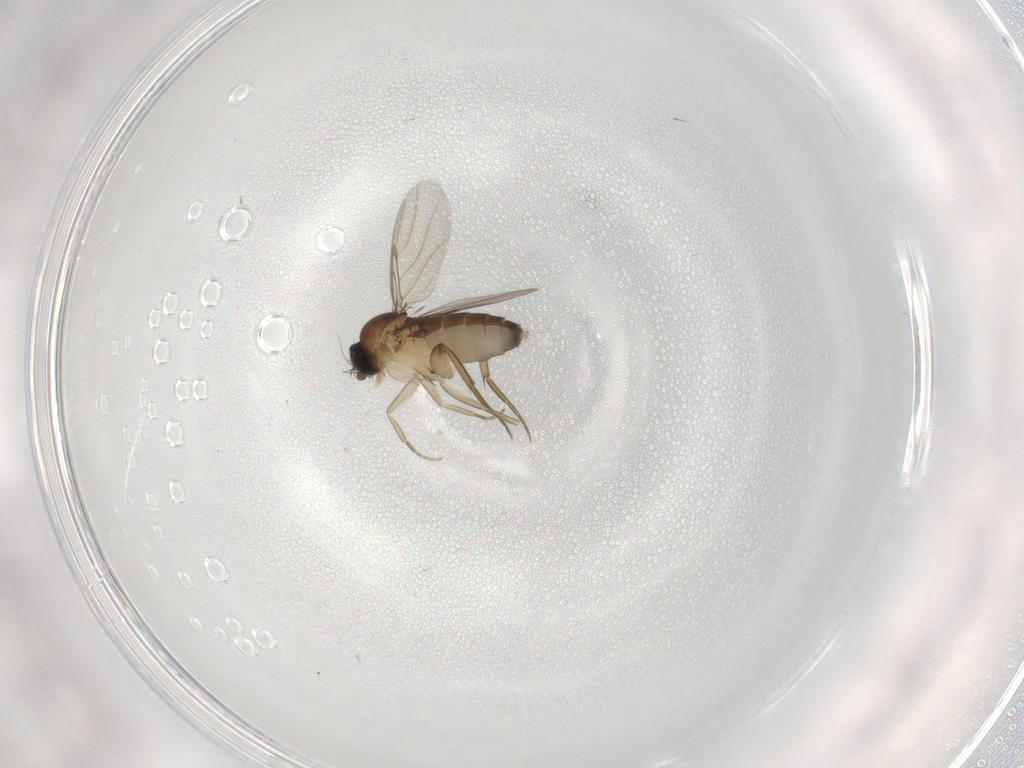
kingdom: Animalia
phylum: Arthropoda
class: Insecta
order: Diptera
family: Phoridae
